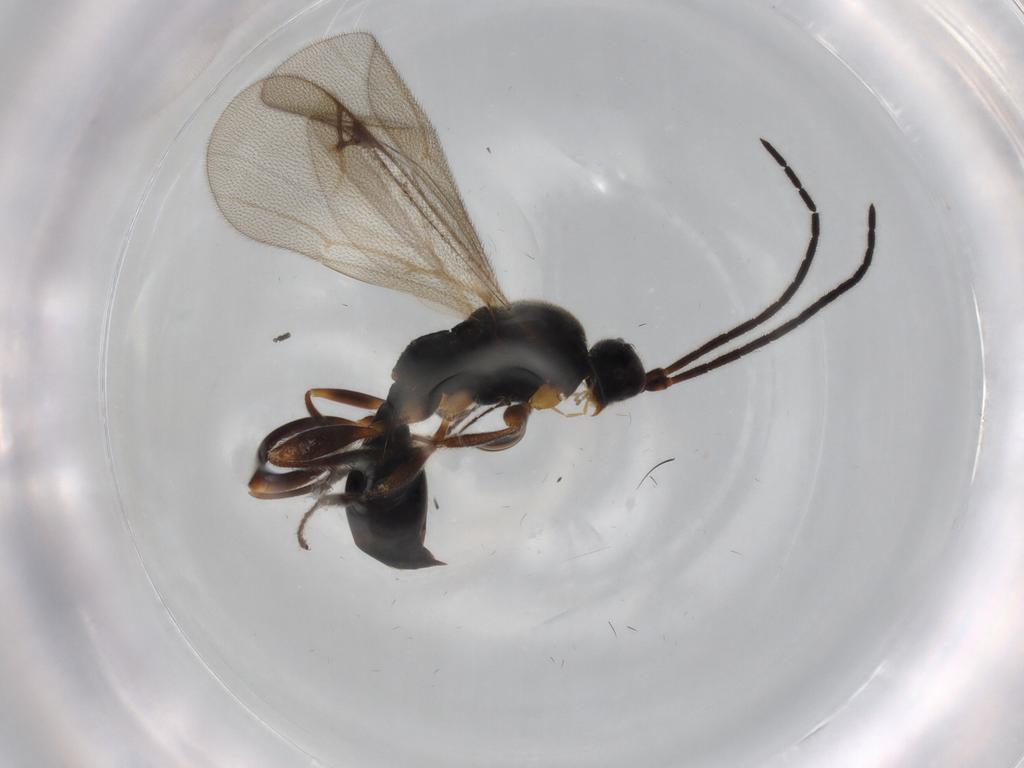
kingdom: Animalia
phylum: Arthropoda
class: Insecta
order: Hymenoptera
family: Proctotrupidae
